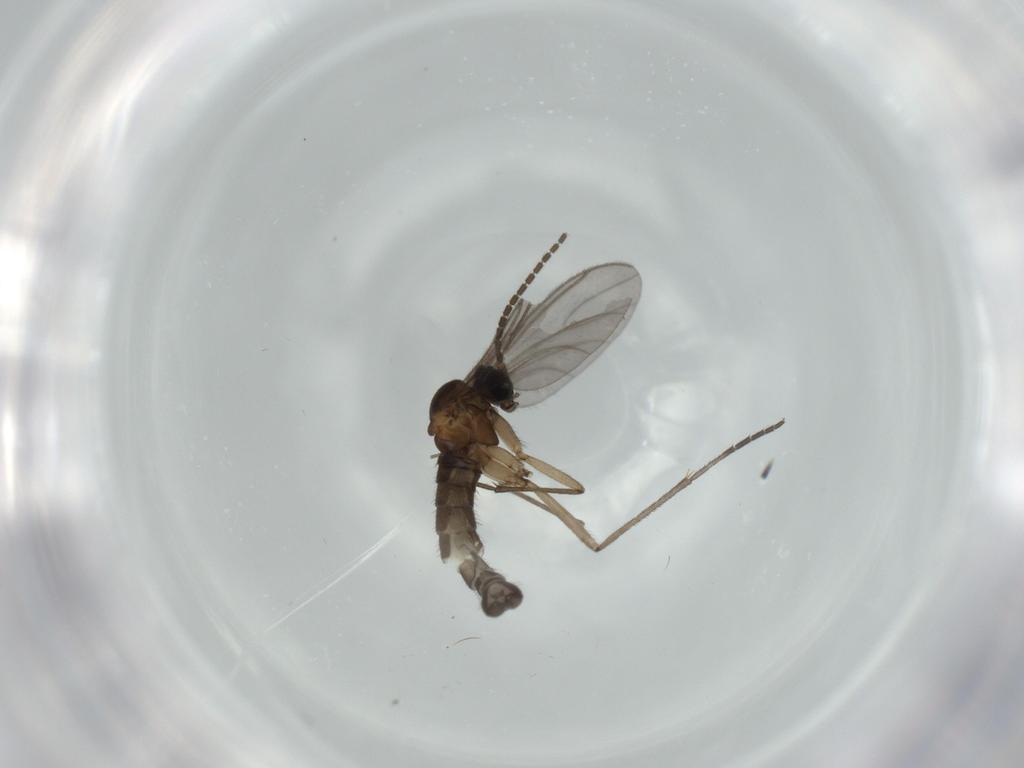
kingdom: Animalia
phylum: Arthropoda
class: Insecta
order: Diptera
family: Sciaridae
